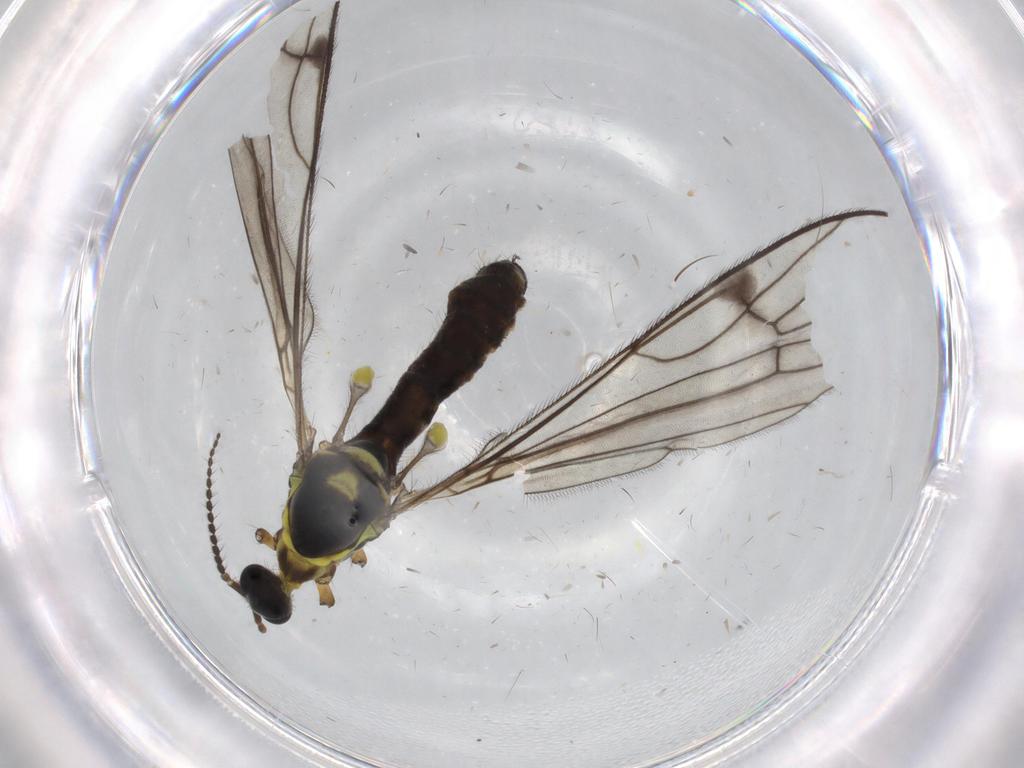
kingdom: Animalia
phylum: Arthropoda
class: Insecta
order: Diptera
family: Limoniidae
